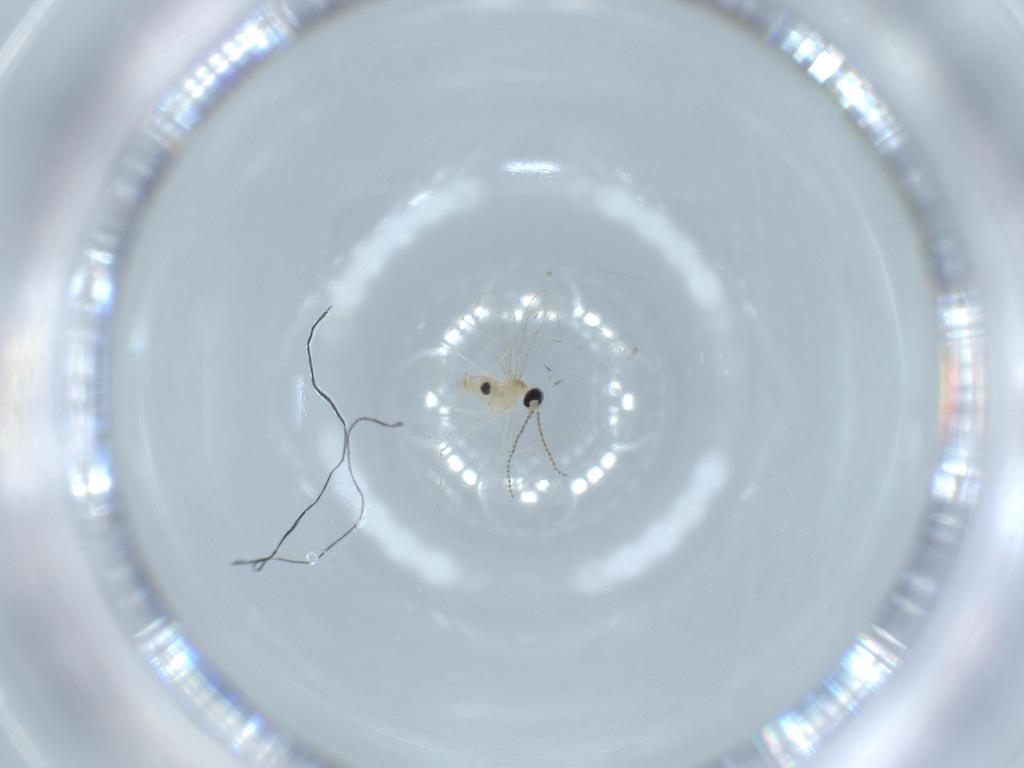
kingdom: Animalia
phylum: Arthropoda
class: Insecta
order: Diptera
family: Cecidomyiidae
